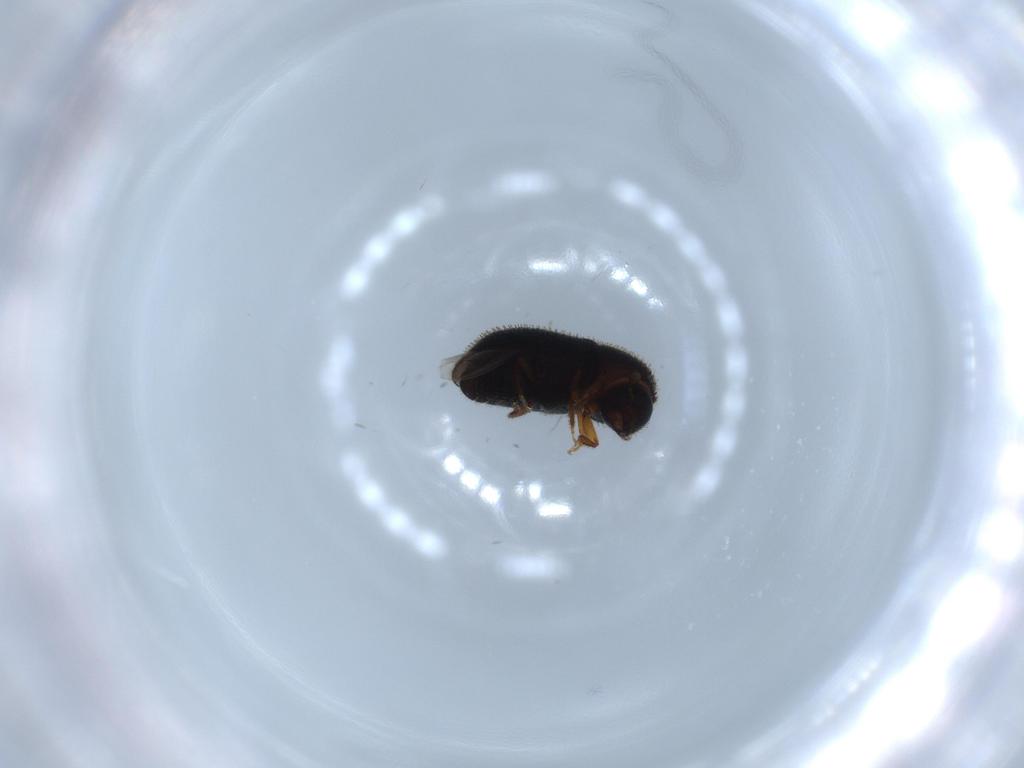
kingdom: Animalia
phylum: Arthropoda
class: Insecta
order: Coleoptera
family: Curculionidae
